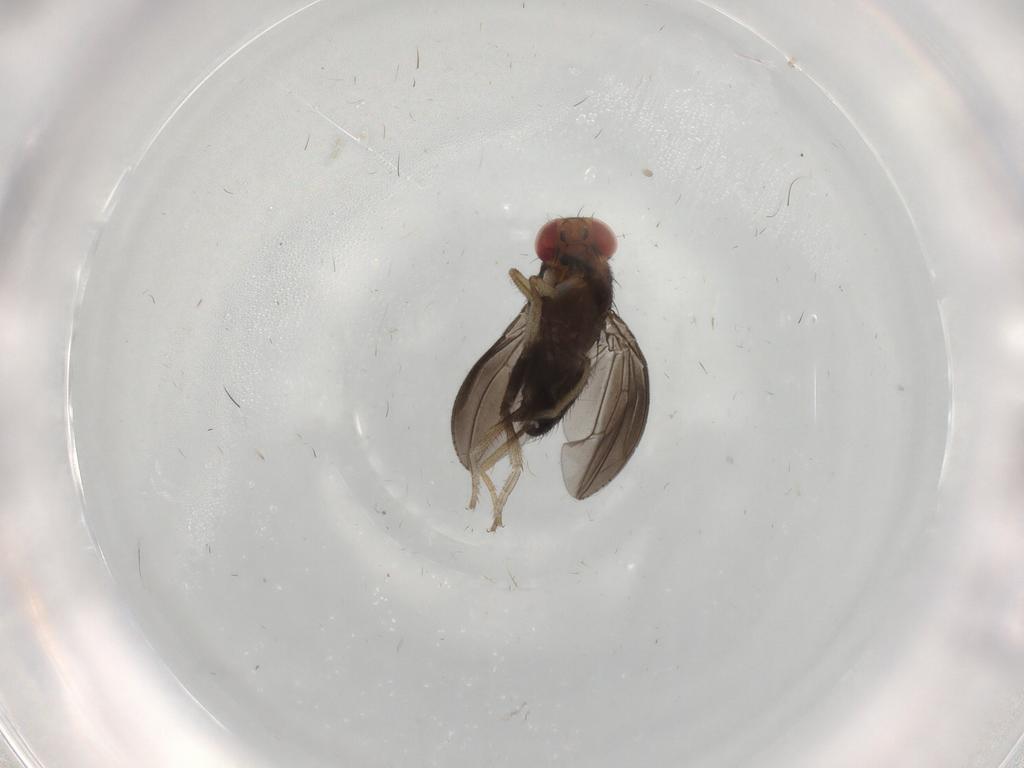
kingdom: Animalia
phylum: Arthropoda
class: Insecta
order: Diptera
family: Drosophilidae
